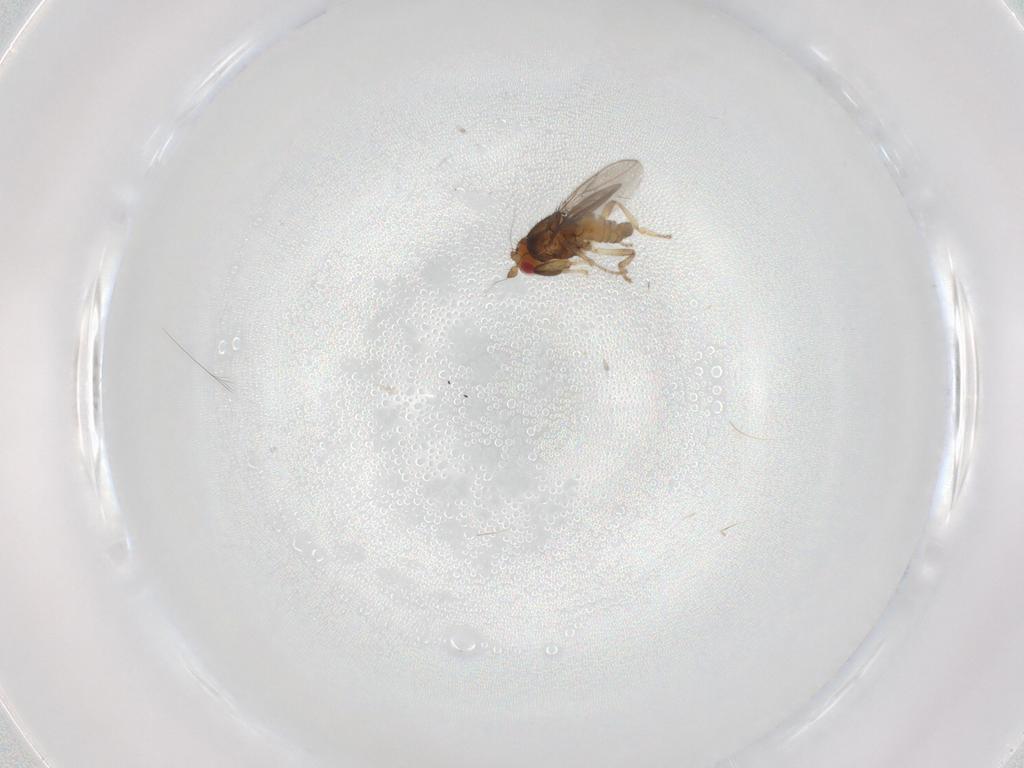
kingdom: Animalia
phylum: Arthropoda
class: Insecta
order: Diptera
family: Sphaeroceridae
